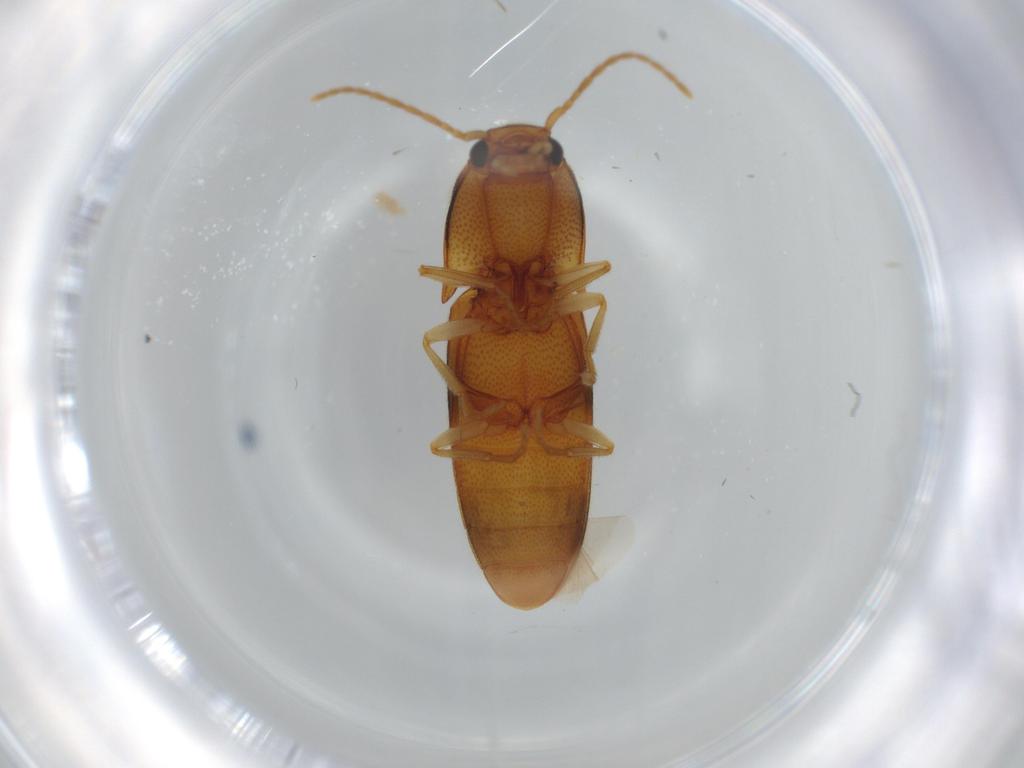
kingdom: Animalia
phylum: Arthropoda
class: Insecta
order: Coleoptera
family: Elateridae
